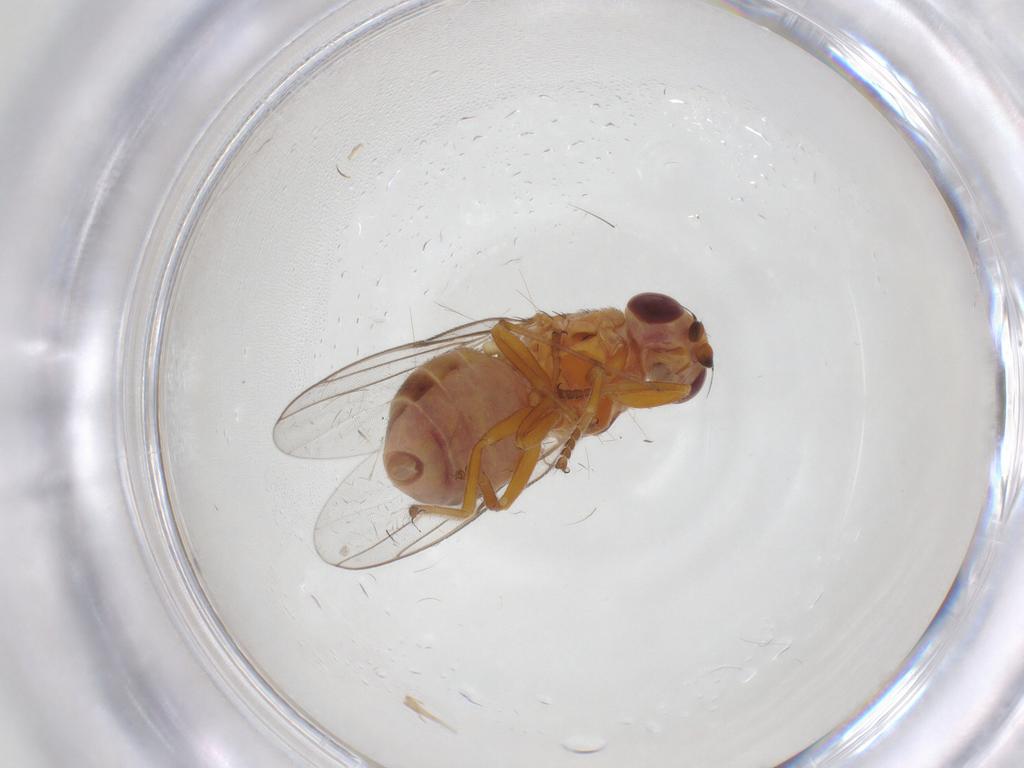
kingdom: Animalia
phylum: Arthropoda
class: Insecta
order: Diptera
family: Chloropidae
